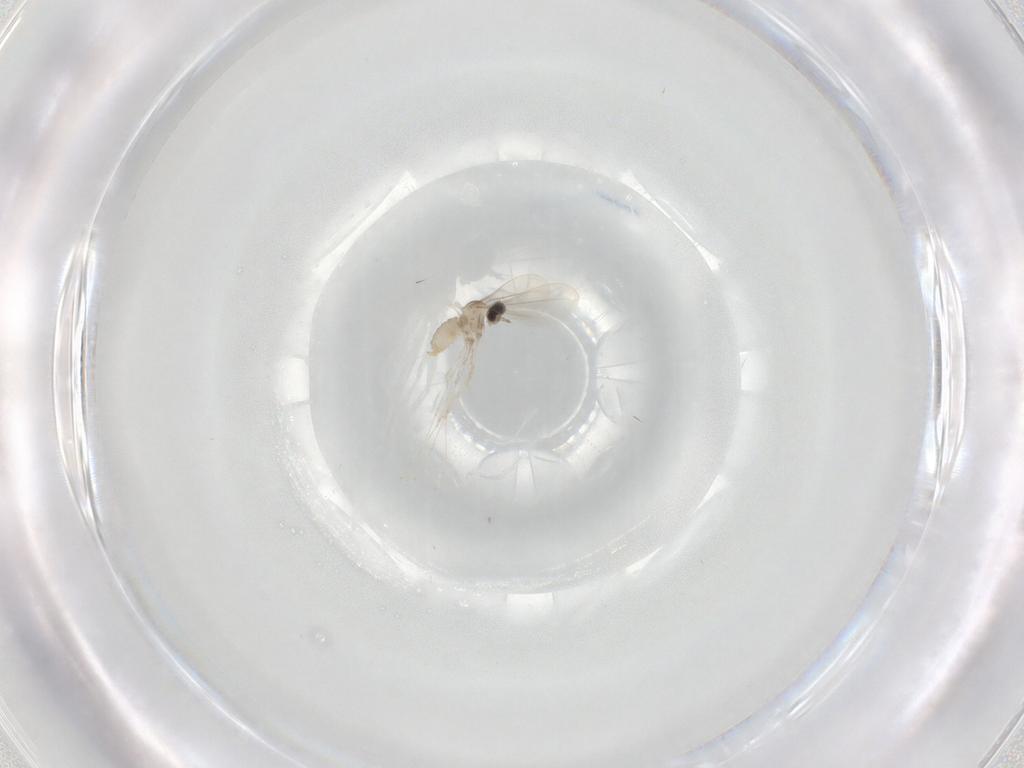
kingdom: Animalia
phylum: Arthropoda
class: Insecta
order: Diptera
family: Cecidomyiidae
